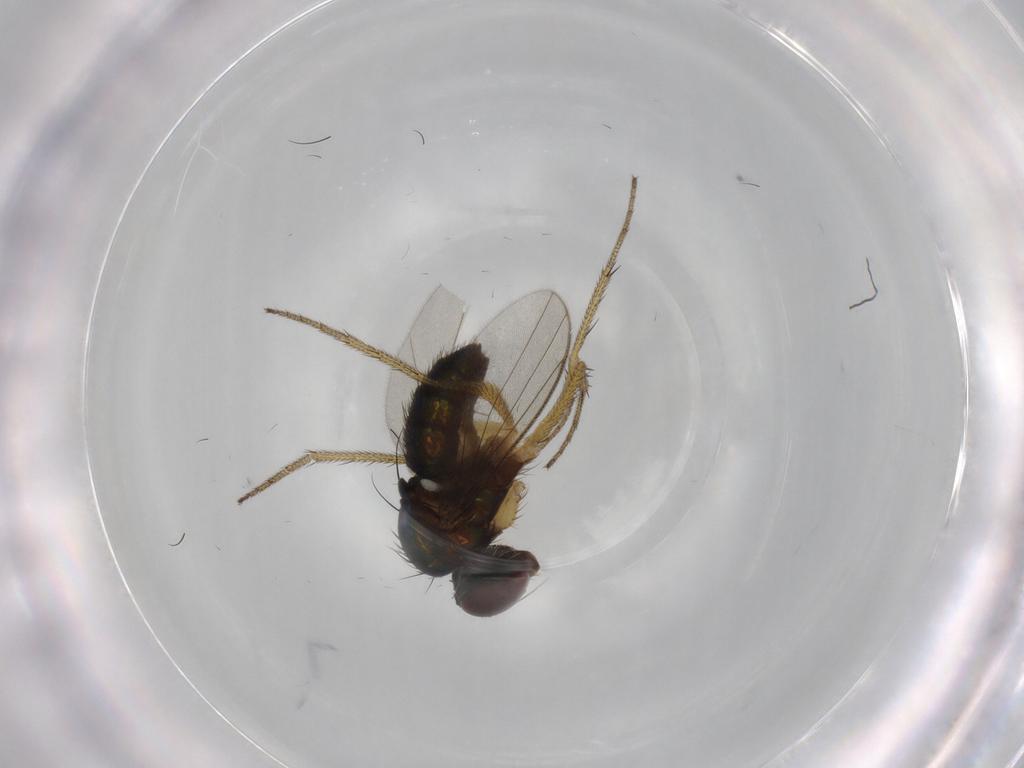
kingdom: Animalia
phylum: Arthropoda
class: Insecta
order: Diptera
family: Dolichopodidae
